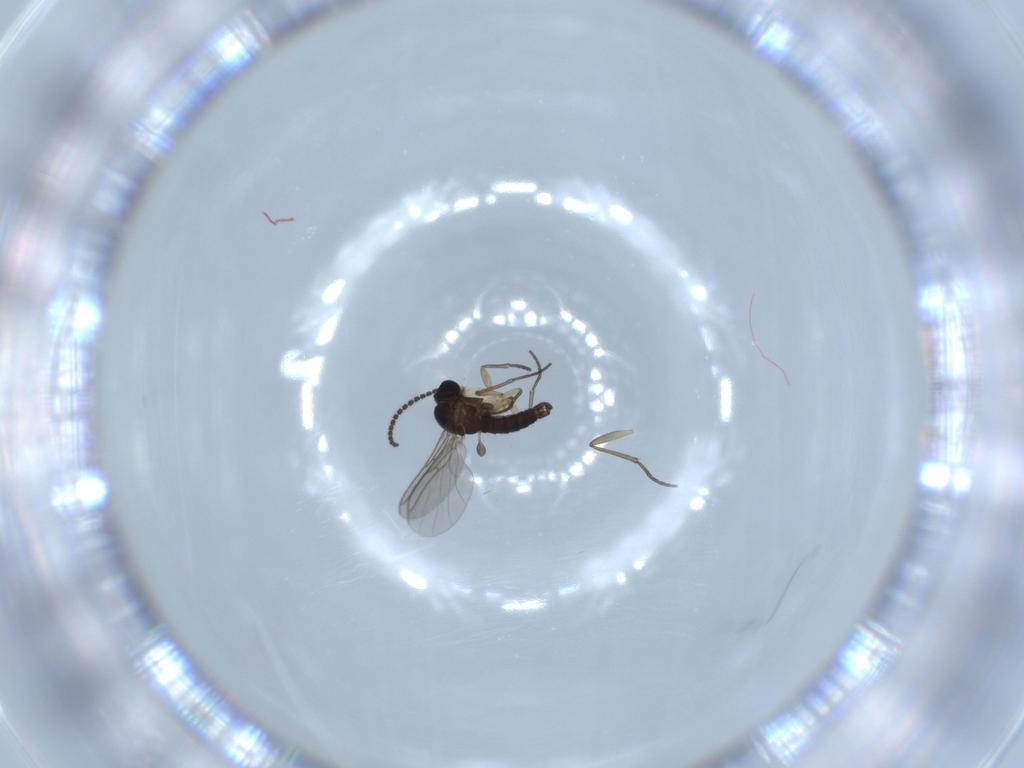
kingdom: Animalia
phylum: Arthropoda
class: Insecta
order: Diptera
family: Sciaridae
